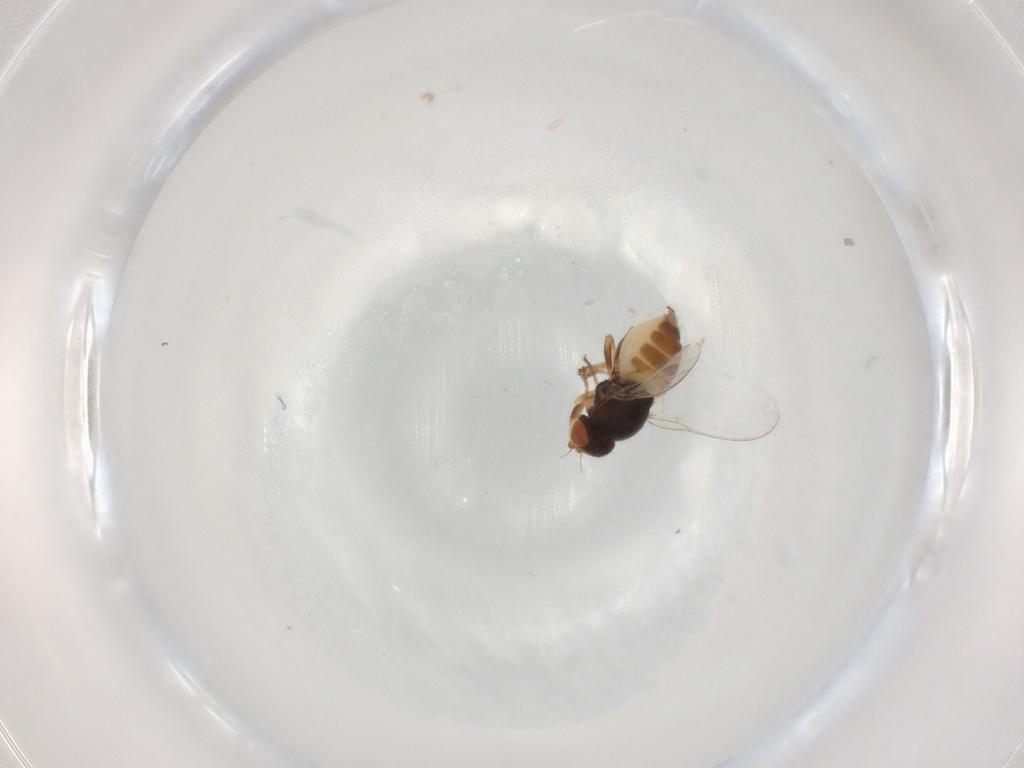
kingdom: Animalia
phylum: Arthropoda
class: Insecta
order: Diptera
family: Chloropidae
